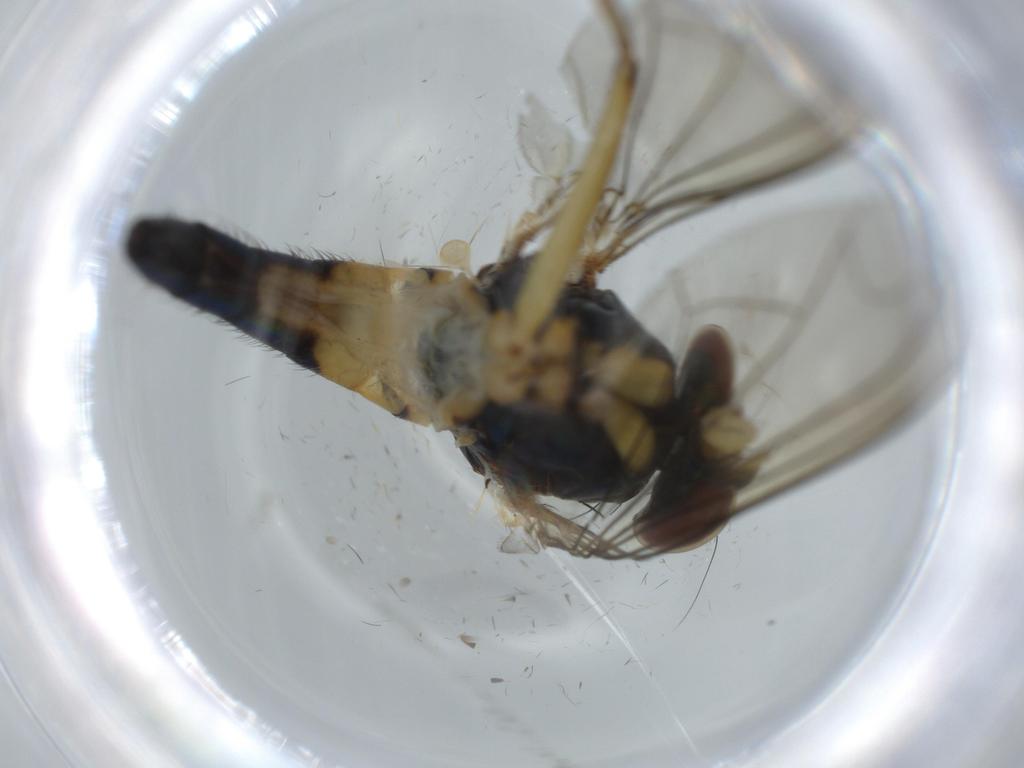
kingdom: Animalia
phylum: Arthropoda
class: Insecta
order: Diptera
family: Dolichopodidae
